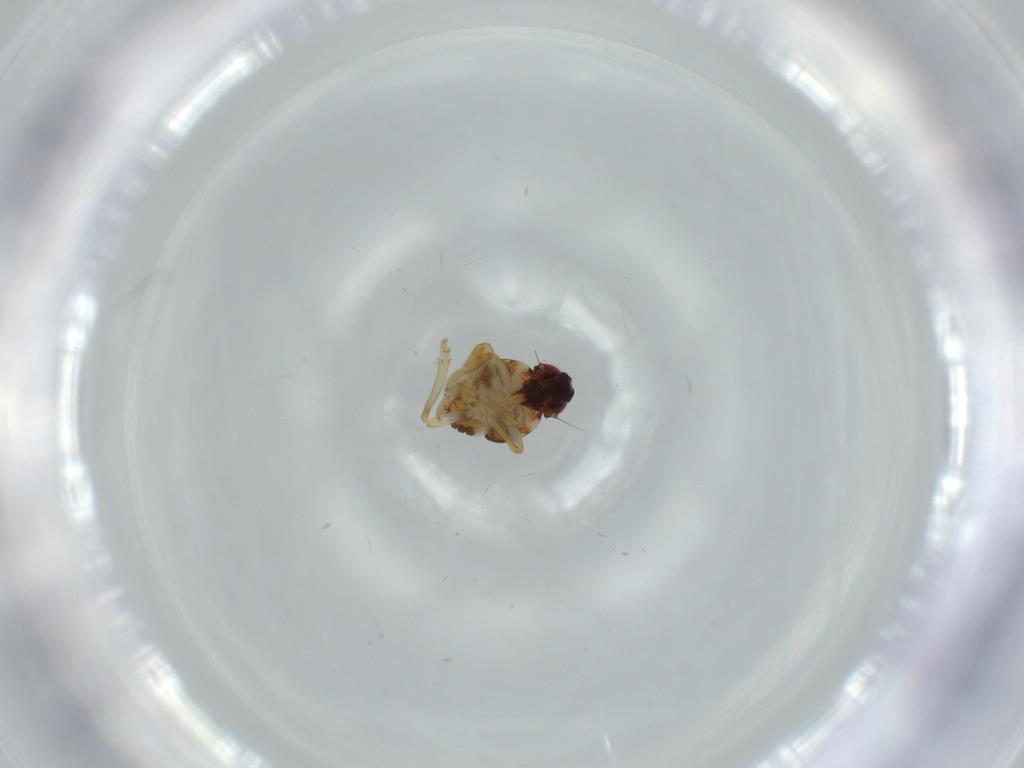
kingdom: Animalia
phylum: Arthropoda
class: Insecta
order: Hemiptera
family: Issidae
